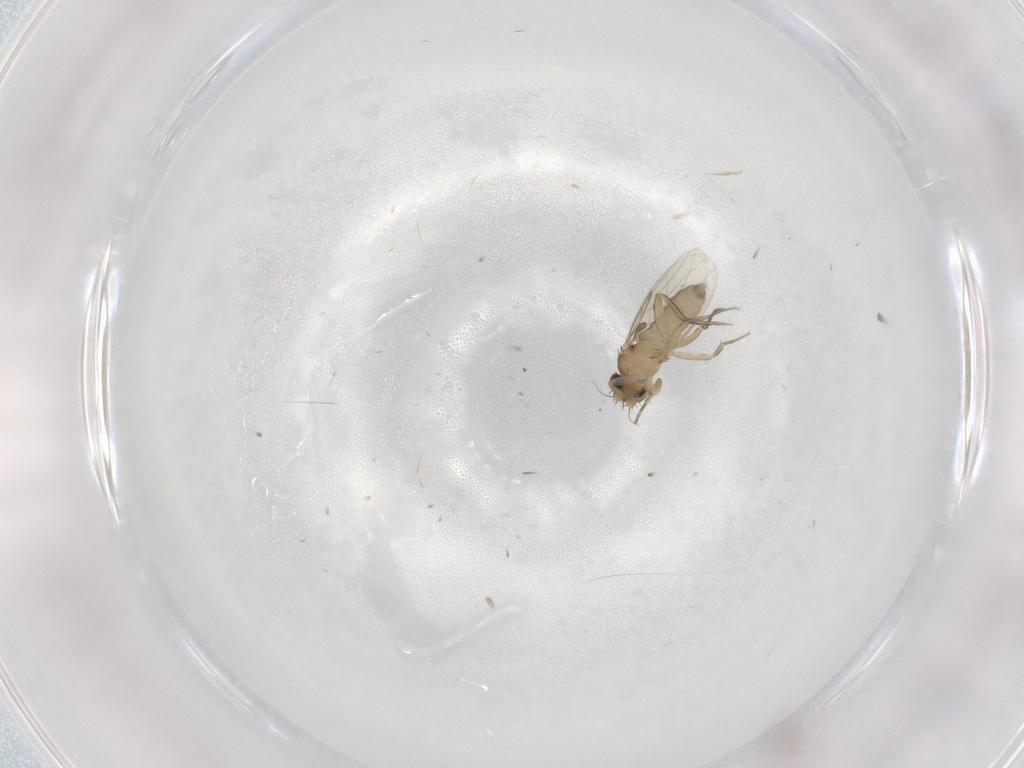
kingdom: Animalia
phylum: Arthropoda
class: Insecta
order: Diptera
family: Phoridae
